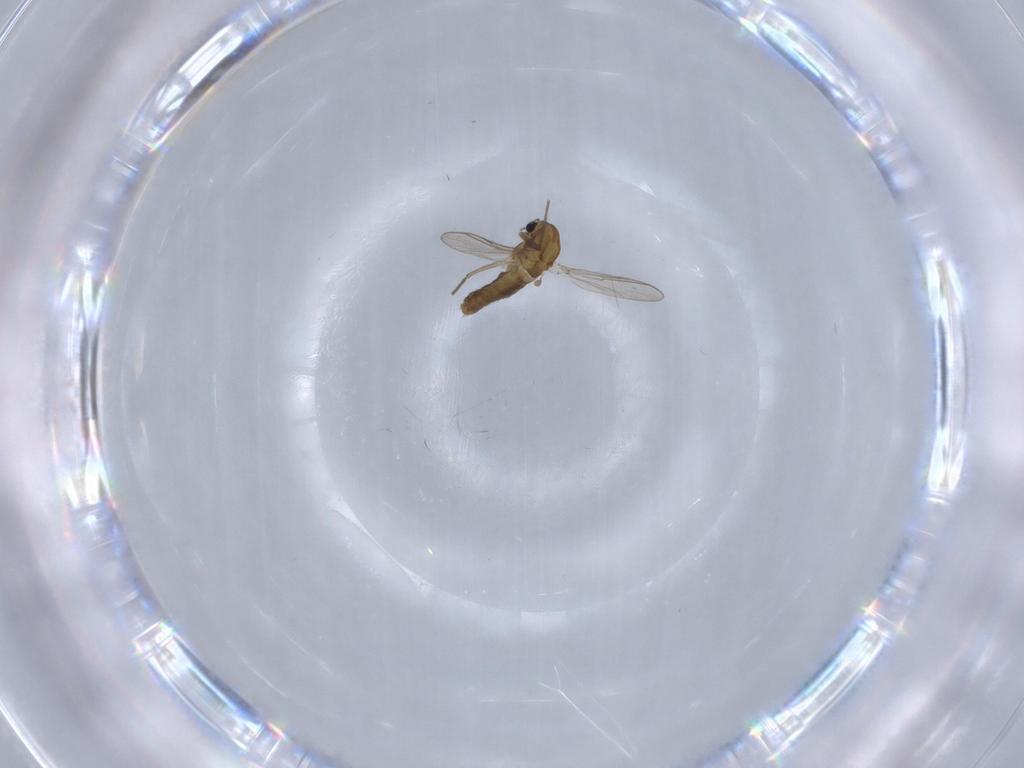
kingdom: Animalia
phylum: Arthropoda
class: Insecta
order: Diptera
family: Chironomidae
